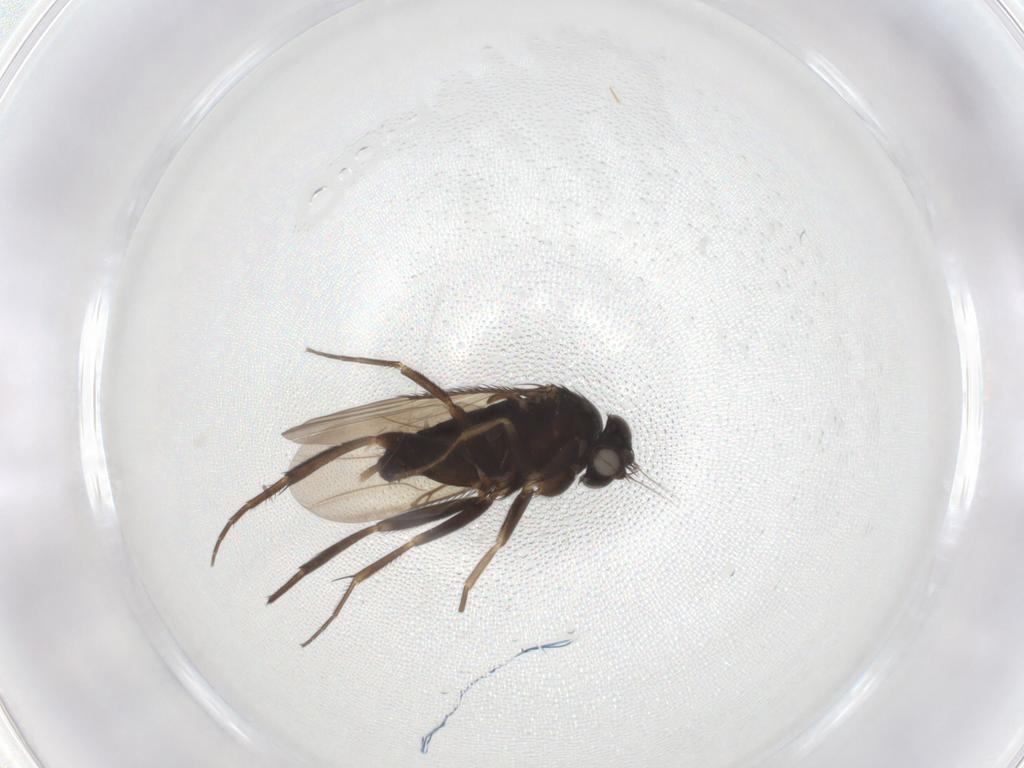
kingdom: Animalia
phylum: Arthropoda
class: Insecta
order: Diptera
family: Phoridae
